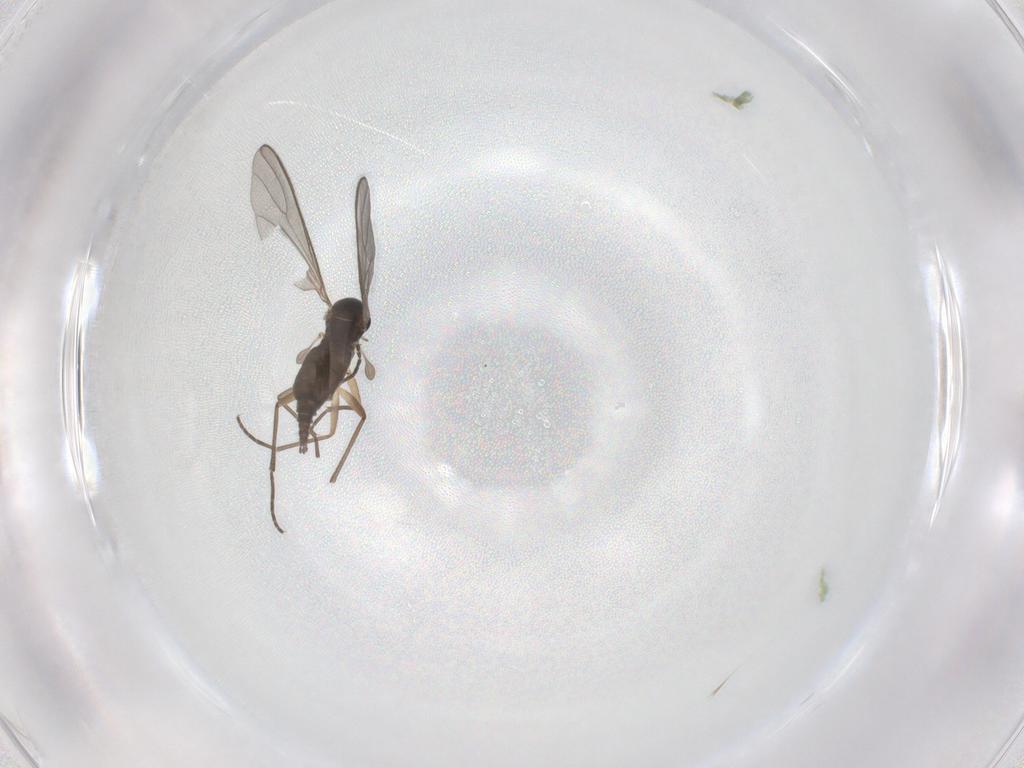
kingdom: Animalia
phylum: Arthropoda
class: Insecta
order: Diptera
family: Sciaridae
